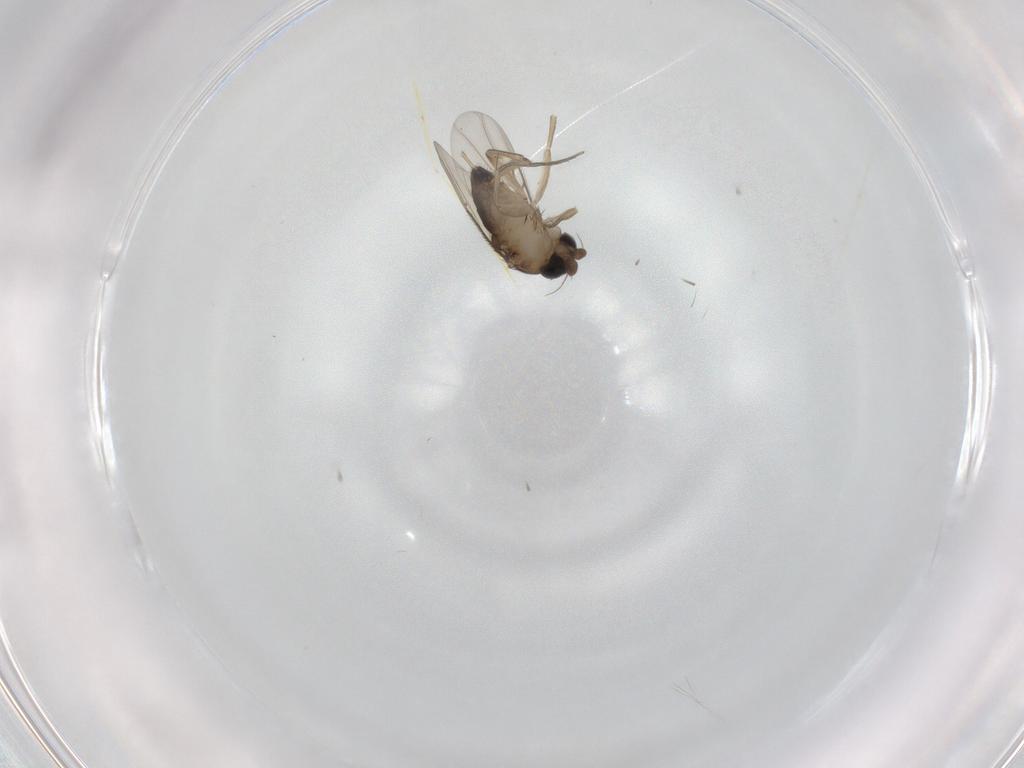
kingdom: Animalia
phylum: Arthropoda
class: Insecta
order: Diptera
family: Phoridae
